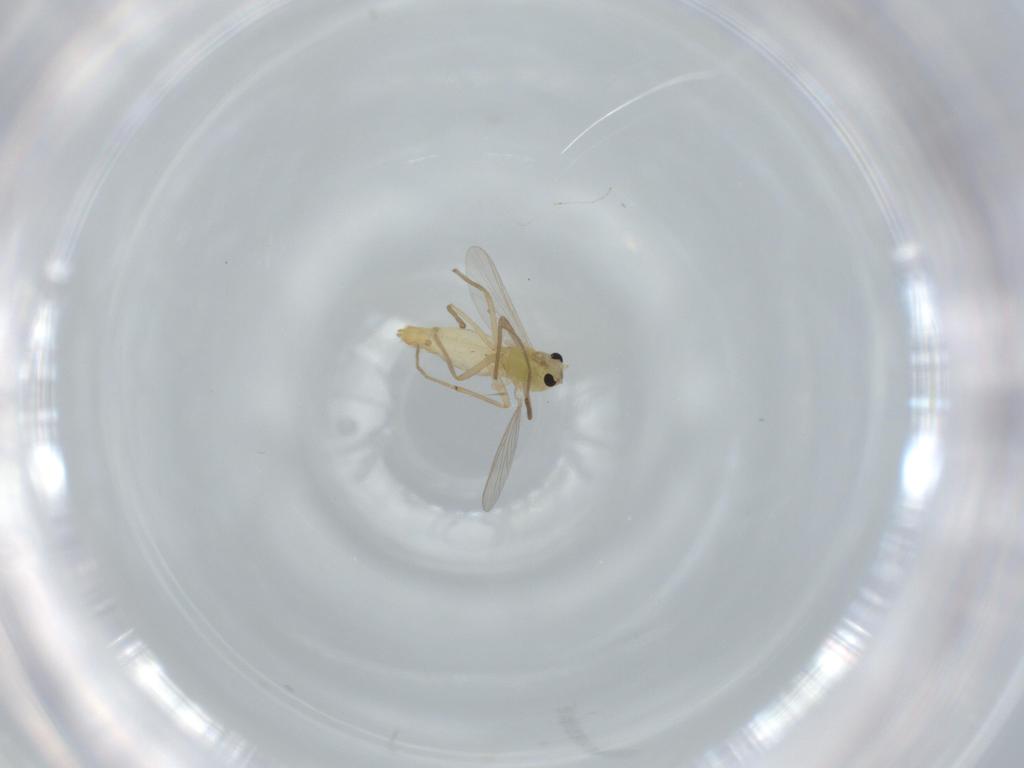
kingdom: Animalia
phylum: Arthropoda
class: Insecta
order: Diptera
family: Chironomidae
